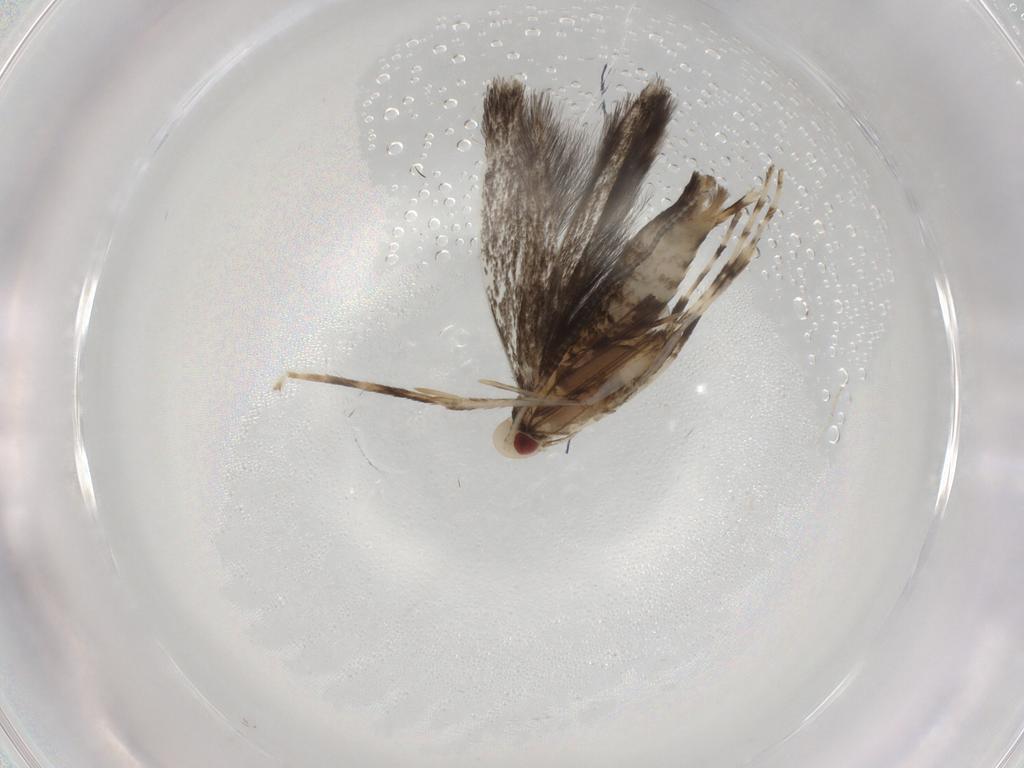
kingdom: Animalia
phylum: Arthropoda
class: Insecta
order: Lepidoptera
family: Gracillariidae
